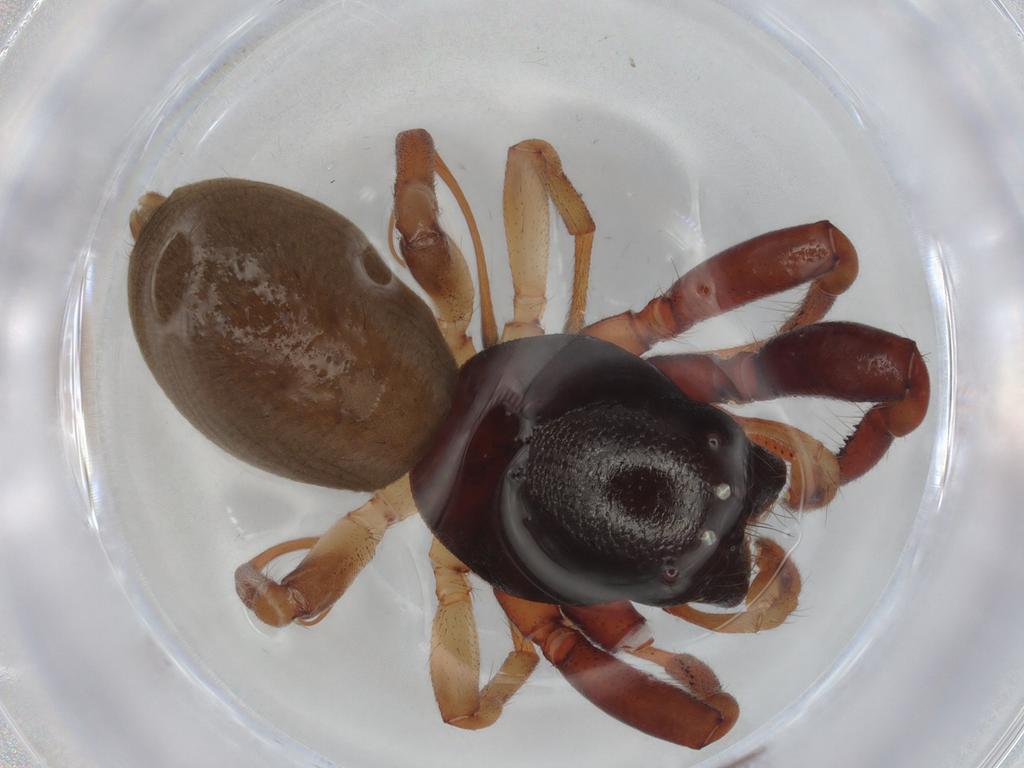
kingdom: Animalia
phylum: Arthropoda
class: Arachnida
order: Araneae
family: Trachelidae
